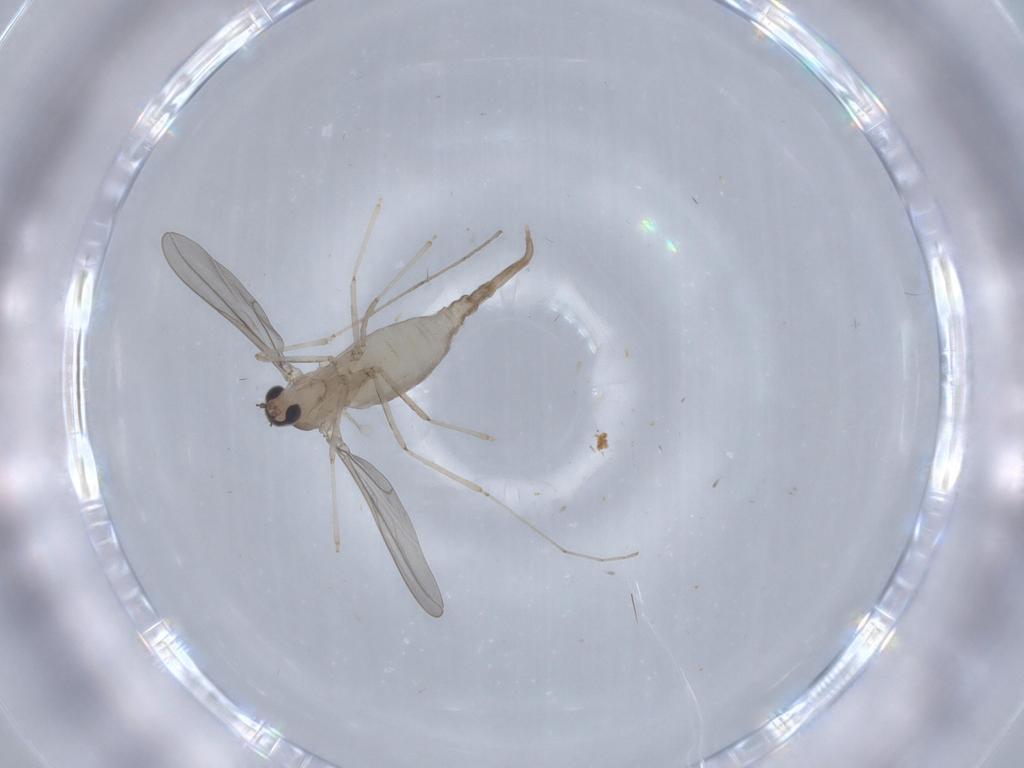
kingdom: Animalia
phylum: Arthropoda
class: Insecta
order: Diptera
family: Cecidomyiidae
